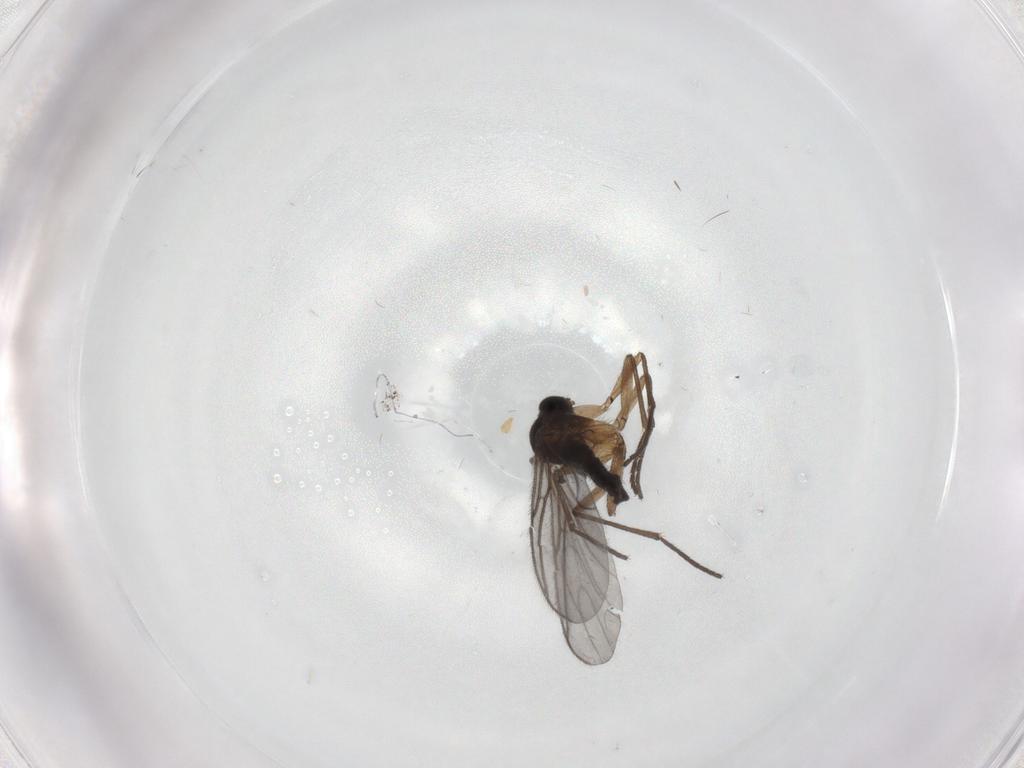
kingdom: Animalia
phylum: Arthropoda
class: Insecta
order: Diptera
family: Sciaridae
